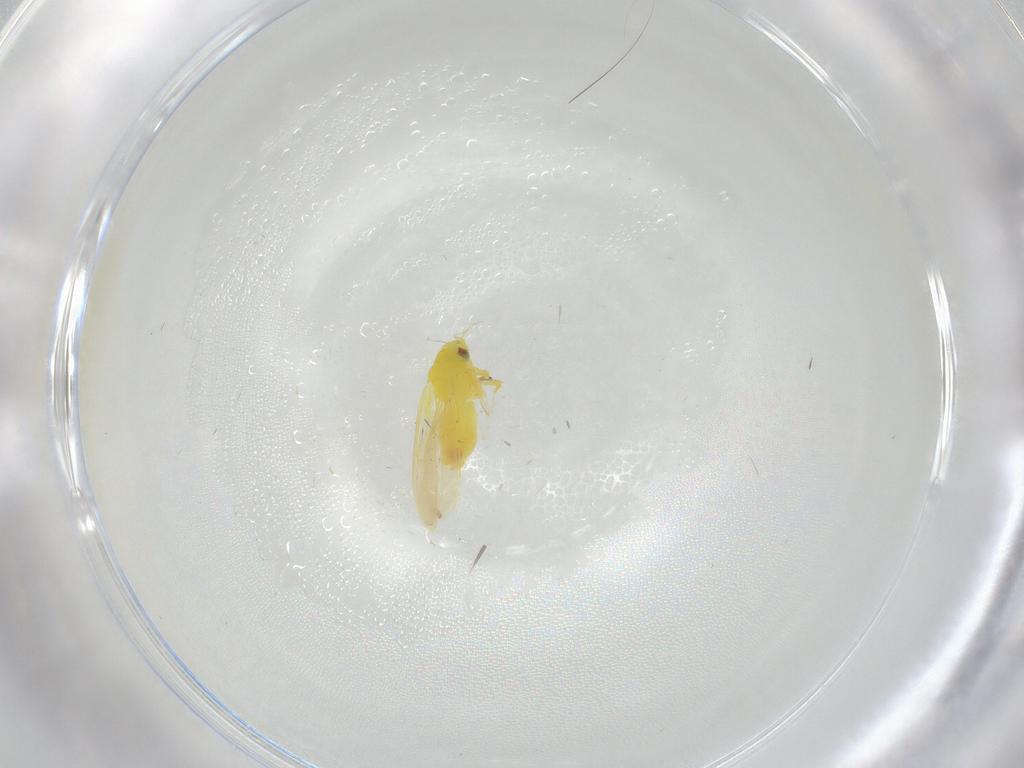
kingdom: Animalia
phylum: Arthropoda
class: Insecta
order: Hemiptera
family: Aleyrodidae
